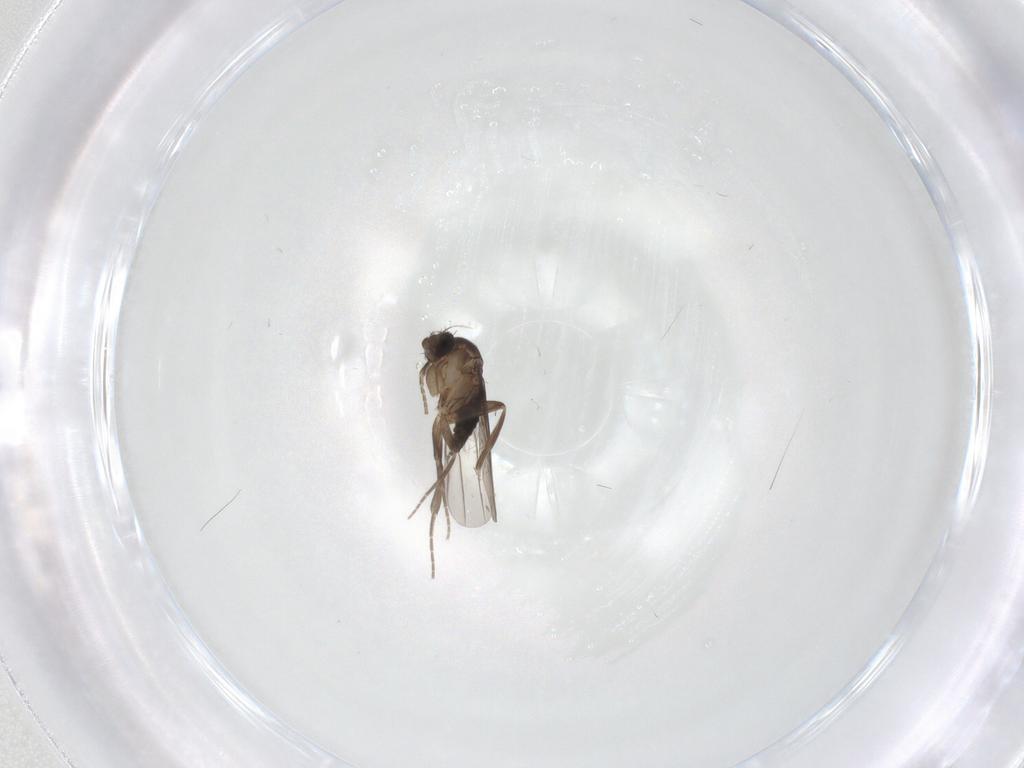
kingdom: Animalia
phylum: Arthropoda
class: Insecta
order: Diptera
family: Phoridae
